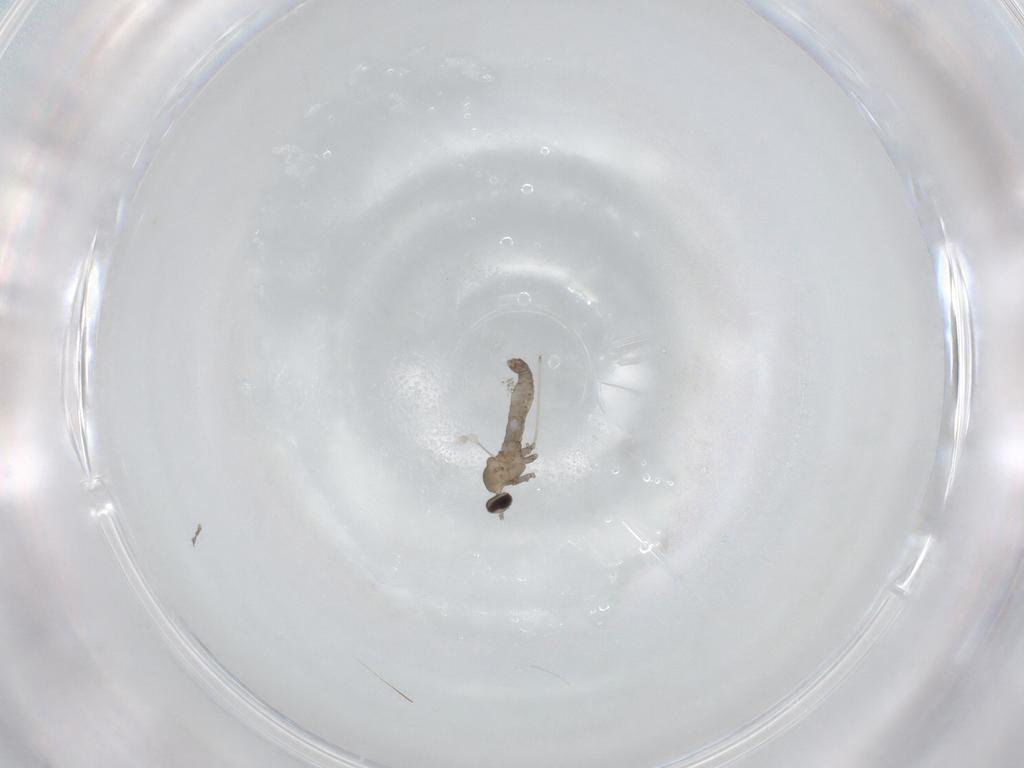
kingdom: Animalia
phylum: Arthropoda
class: Insecta
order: Diptera
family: Cecidomyiidae
